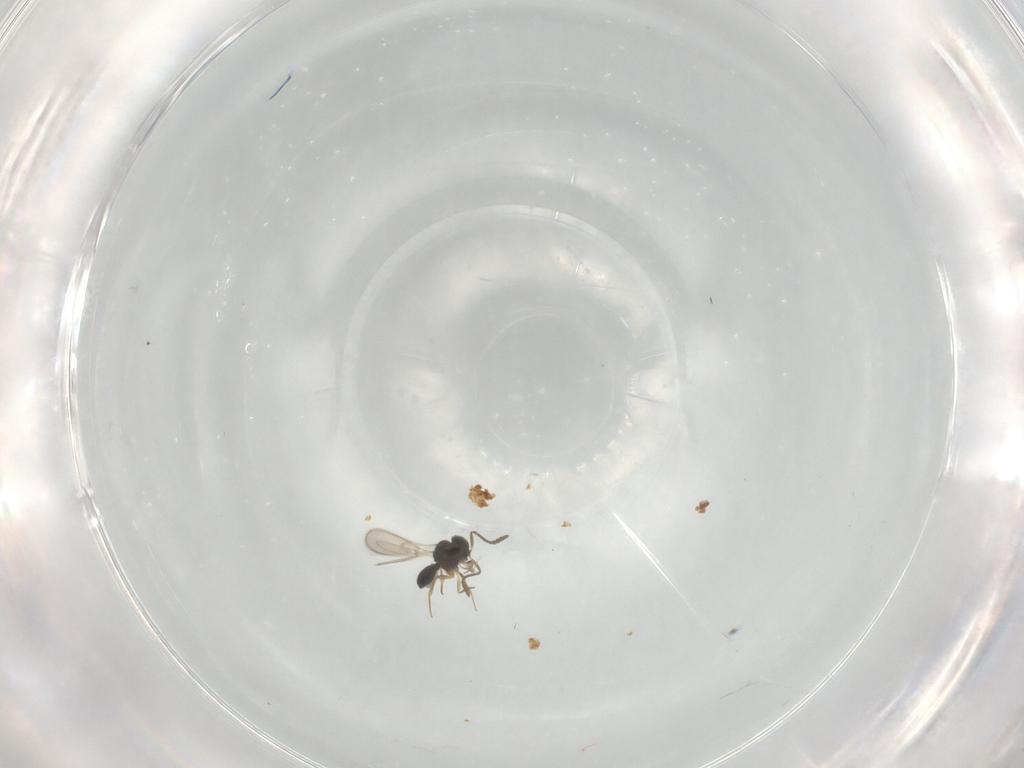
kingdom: Animalia
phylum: Arthropoda
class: Insecta
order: Hymenoptera
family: Scelionidae
